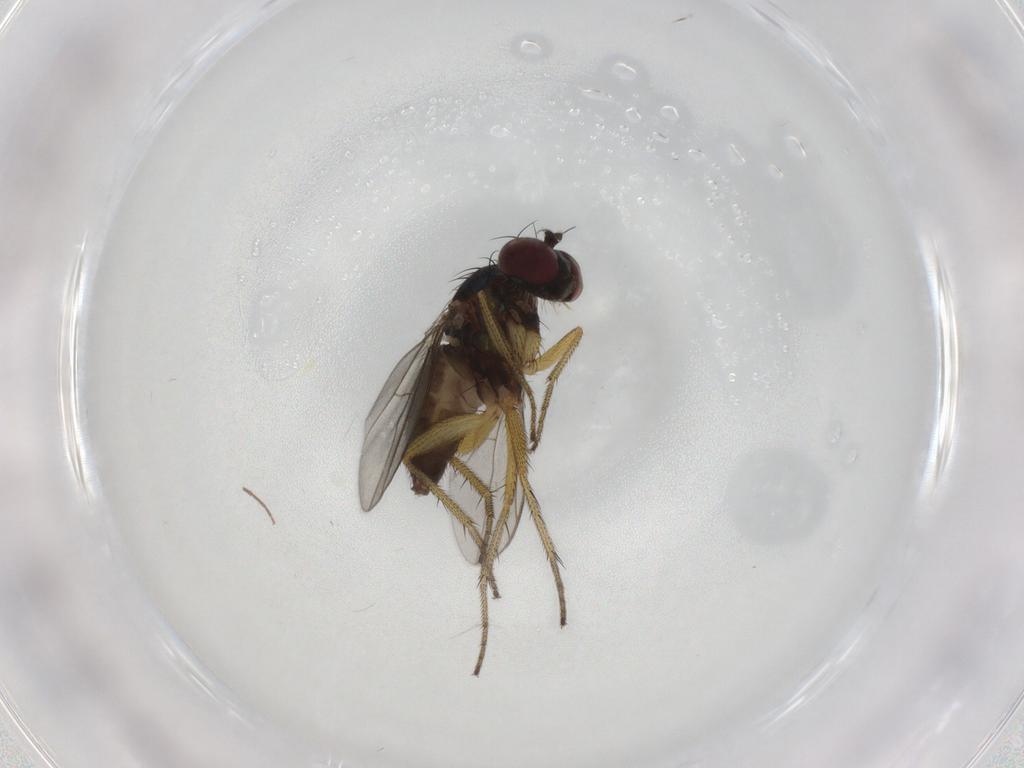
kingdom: Animalia
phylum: Arthropoda
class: Insecta
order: Diptera
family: Dolichopodidae
